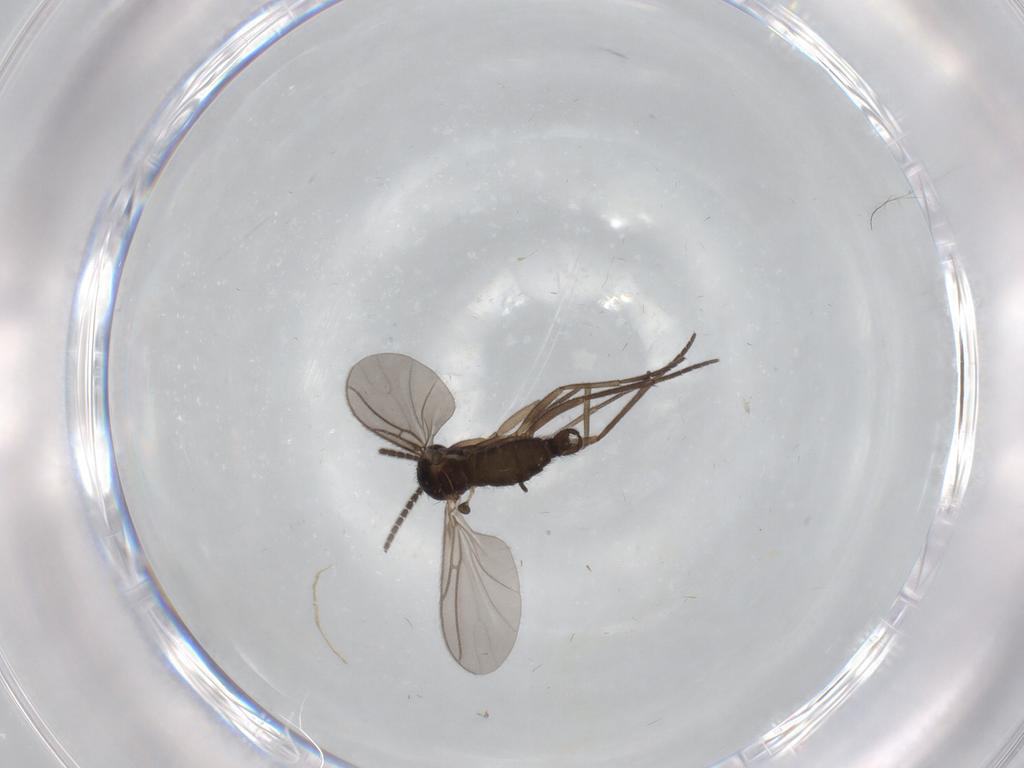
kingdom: Animalia
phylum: Arthropoda
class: Insecta
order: Diptera
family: Sciaridae
